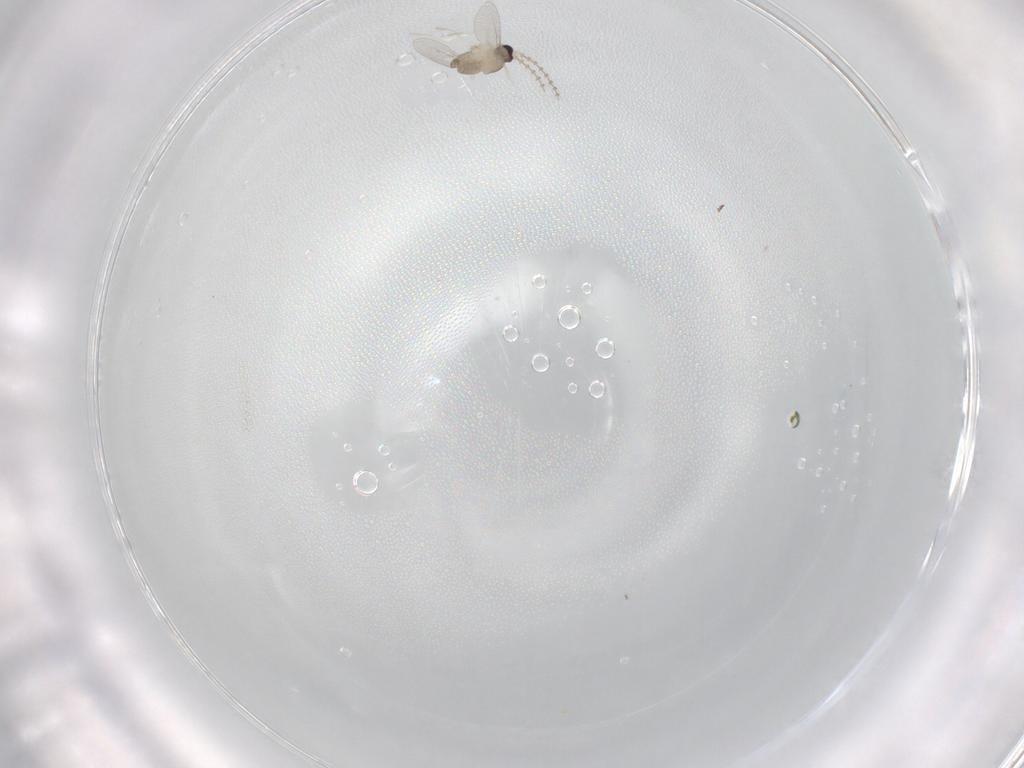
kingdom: Animalia
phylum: Arthropoda
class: Insecta
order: Diptera
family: Cecidomyiidae
